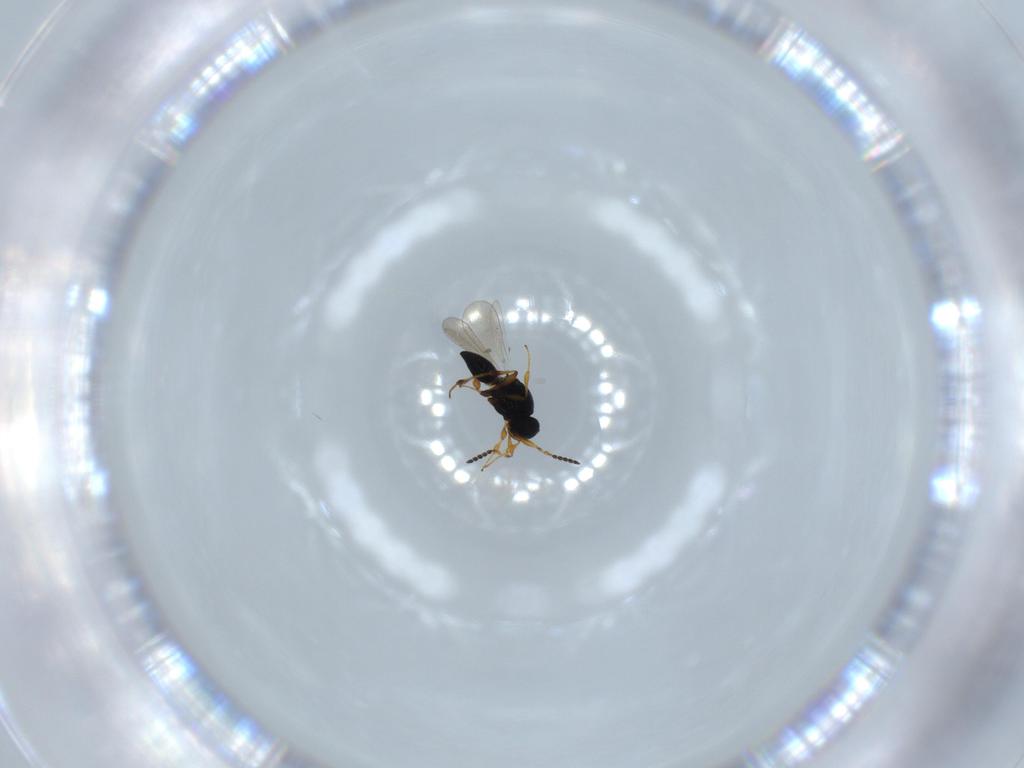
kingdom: Animalia
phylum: Arthropoda
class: Insecta
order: Hymenoptera
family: Platygastridae
